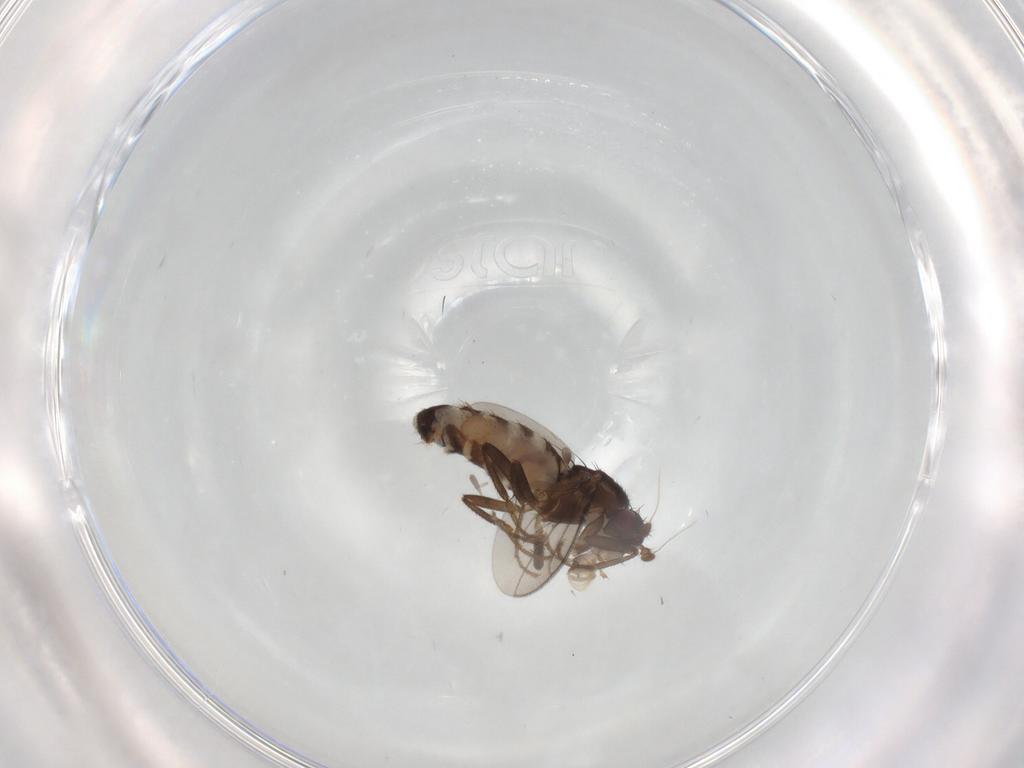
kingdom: Animalia
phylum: Arthropoda
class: Insecta
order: Diptera
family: Sphaeroceridae
